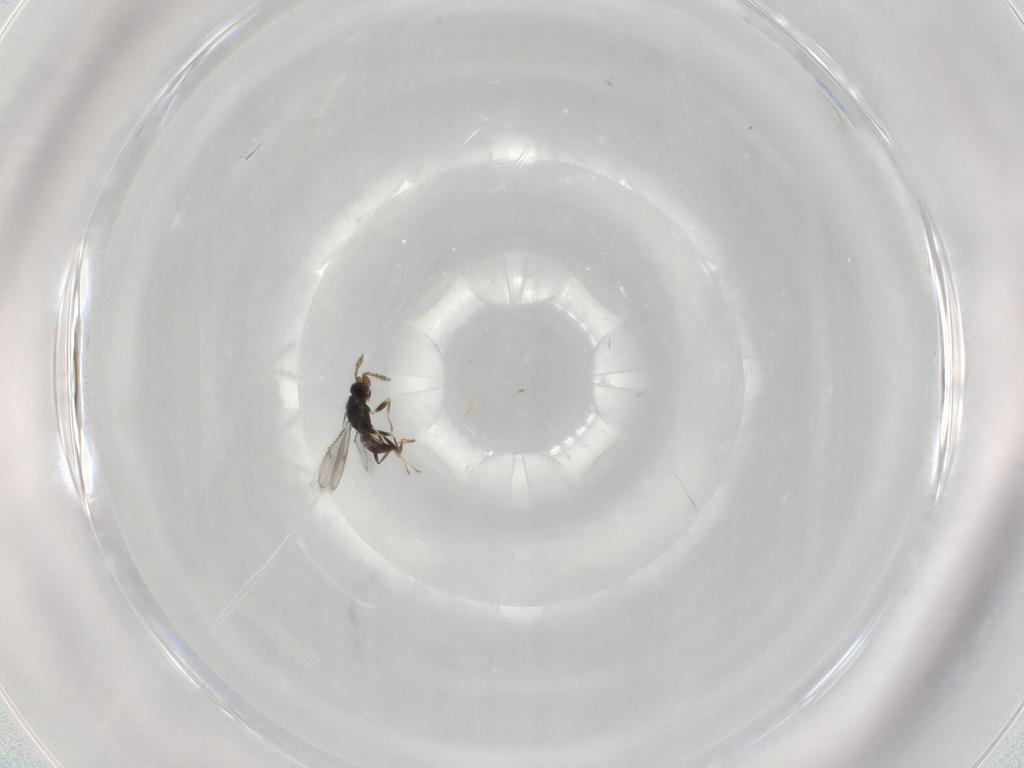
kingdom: Animalia
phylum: Arthropoda
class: Insecta
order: Hymenoptera
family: Eulophidae
